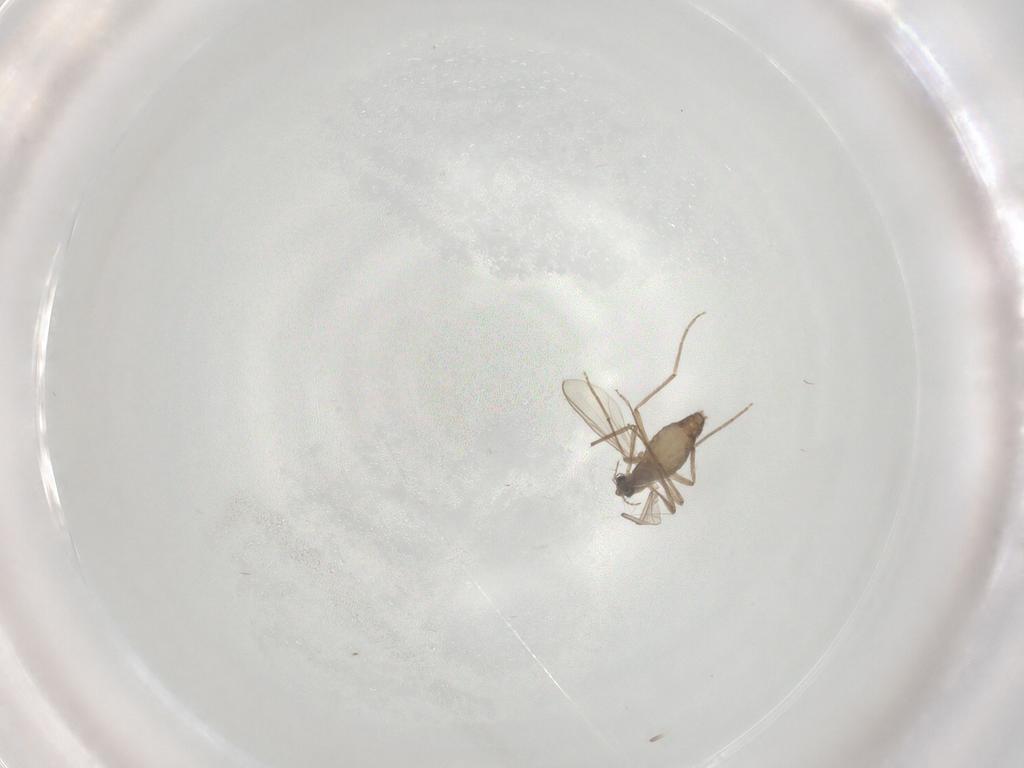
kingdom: Animalia
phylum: Arthropoda
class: Insecta
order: Diptera
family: Chironomidae
